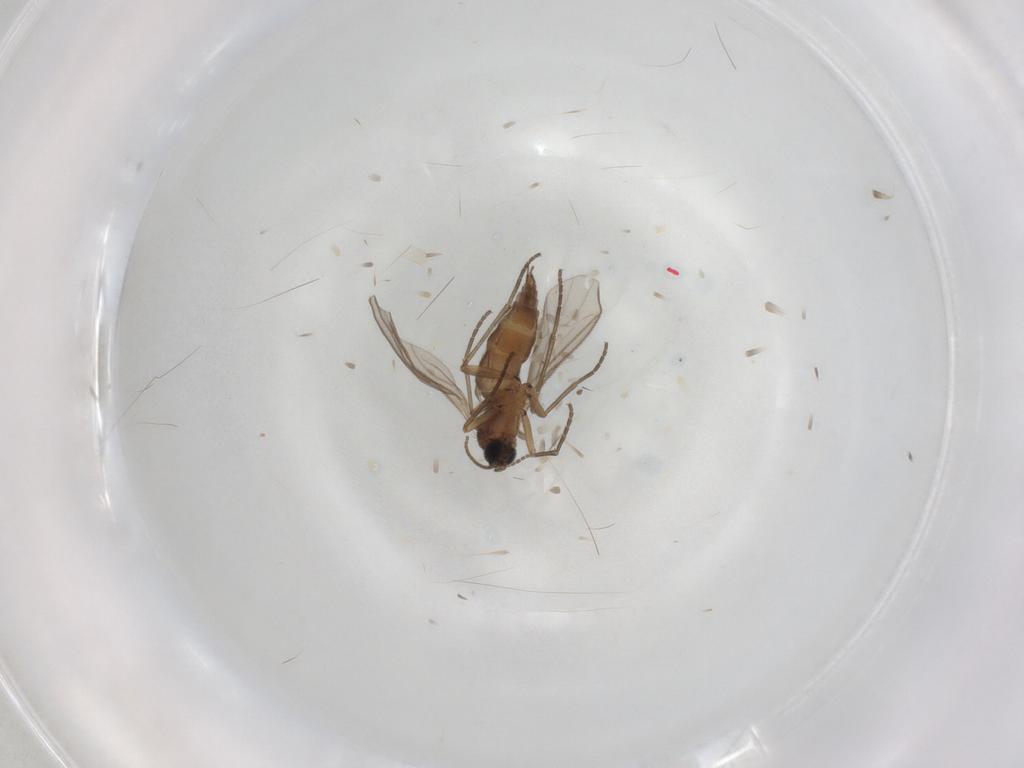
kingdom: Animalia
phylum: Arthropoda
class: Insecta
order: Diptera
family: Sciaridae
